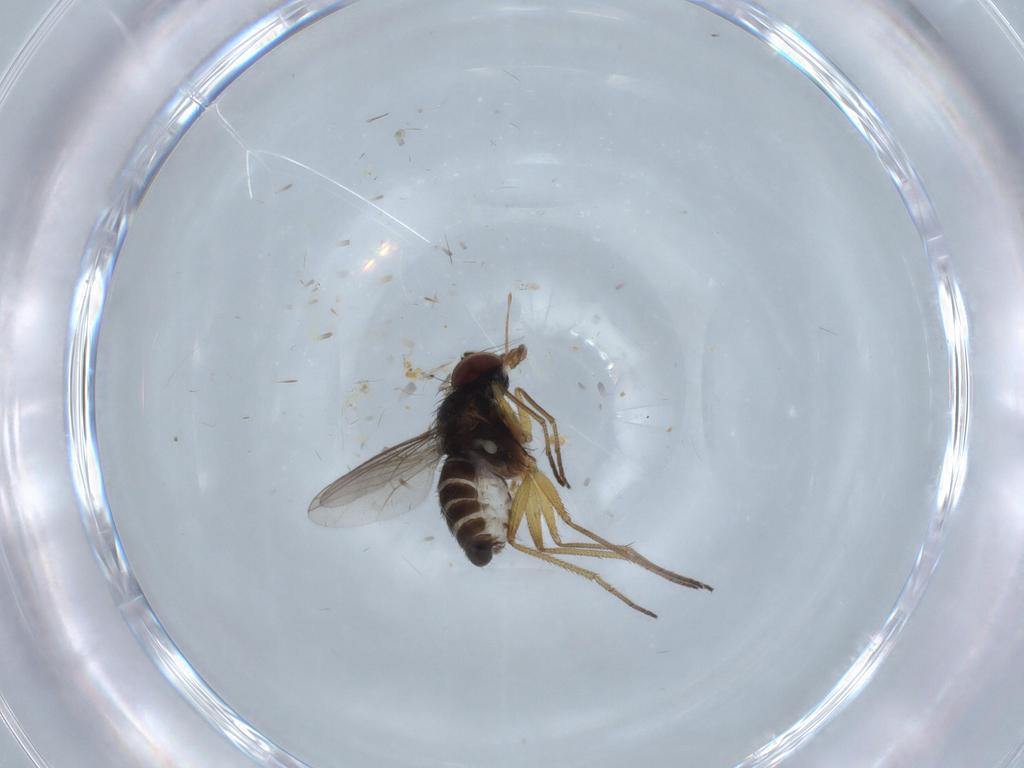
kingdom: Animalia
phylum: Arthropoda
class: Insecta
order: Diptera
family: Dolichopodidae
